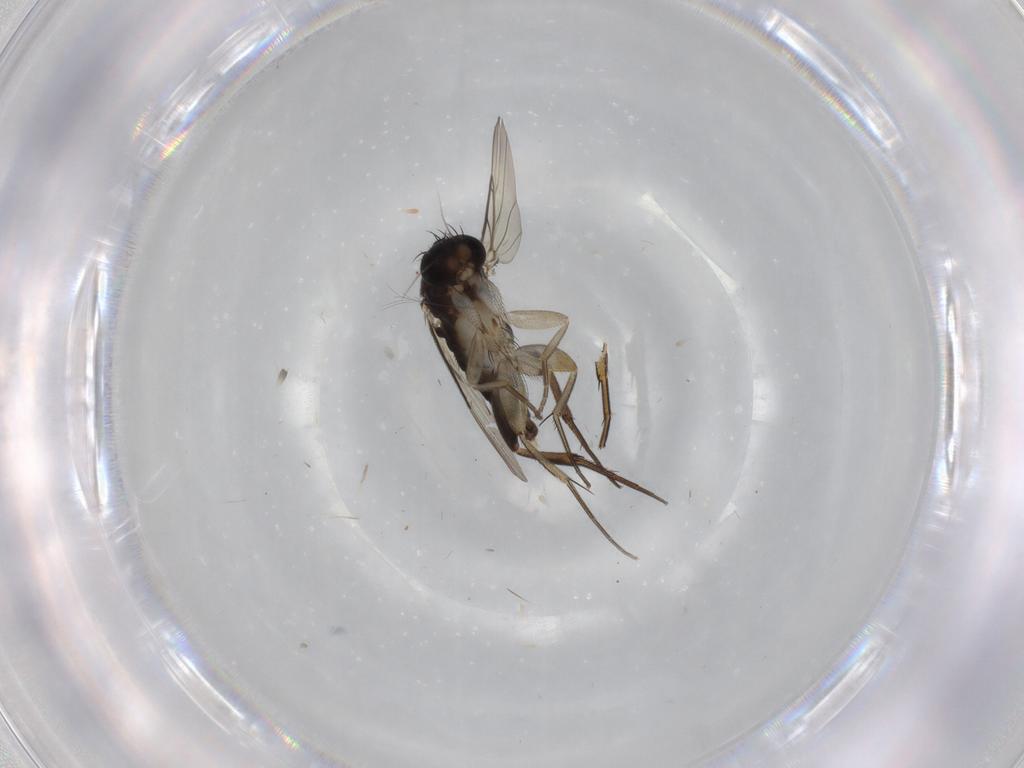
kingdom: Animalia
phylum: Arthropoda
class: Insecta
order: Diptera
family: Phoridae
